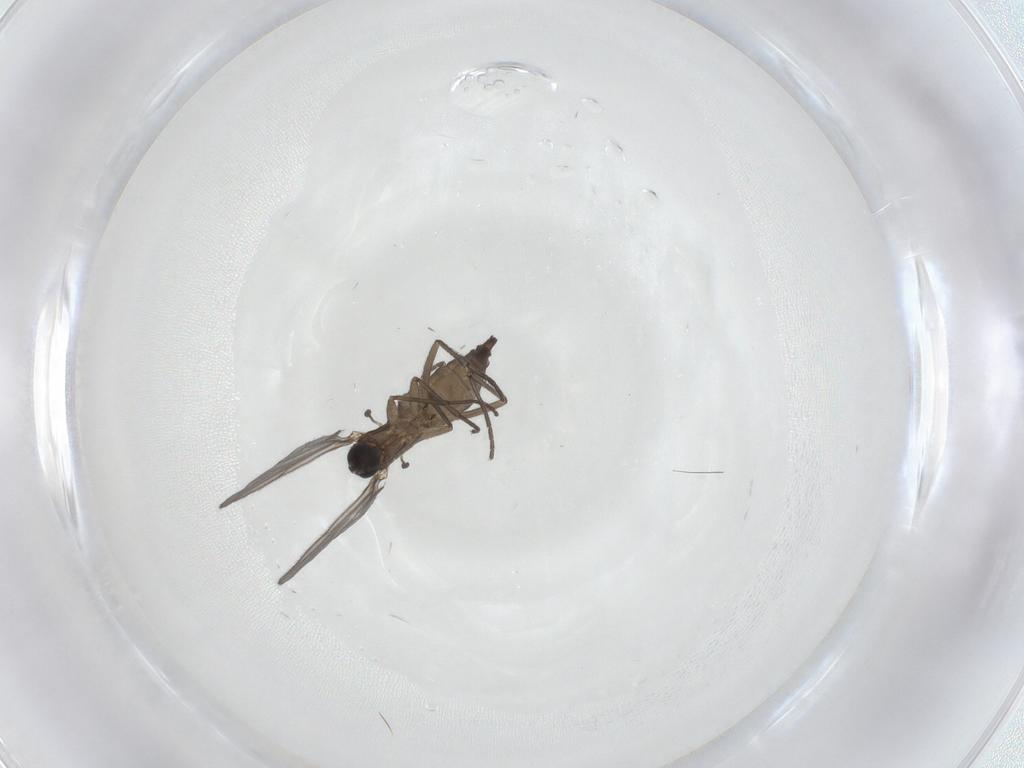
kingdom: Animalia
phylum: Arthropoda
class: Insecta
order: Diptera
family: Sciaridae
